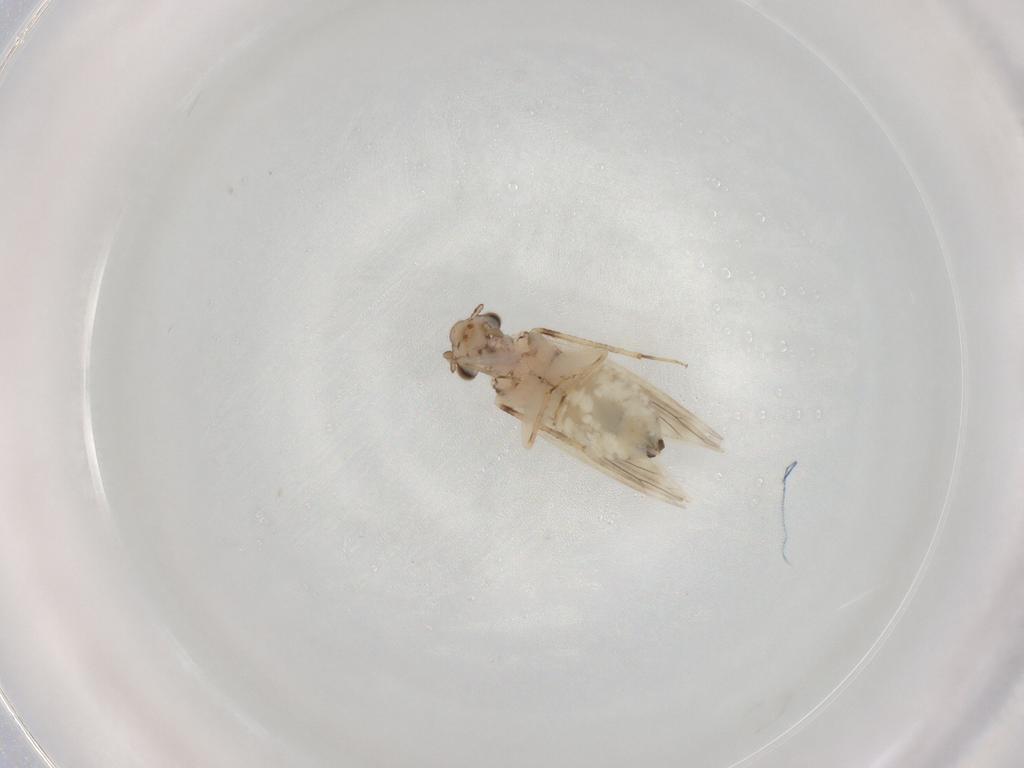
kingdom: Animalia
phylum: Arthropoda
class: Insecta
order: Psocodea
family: Lepidopsocidae
